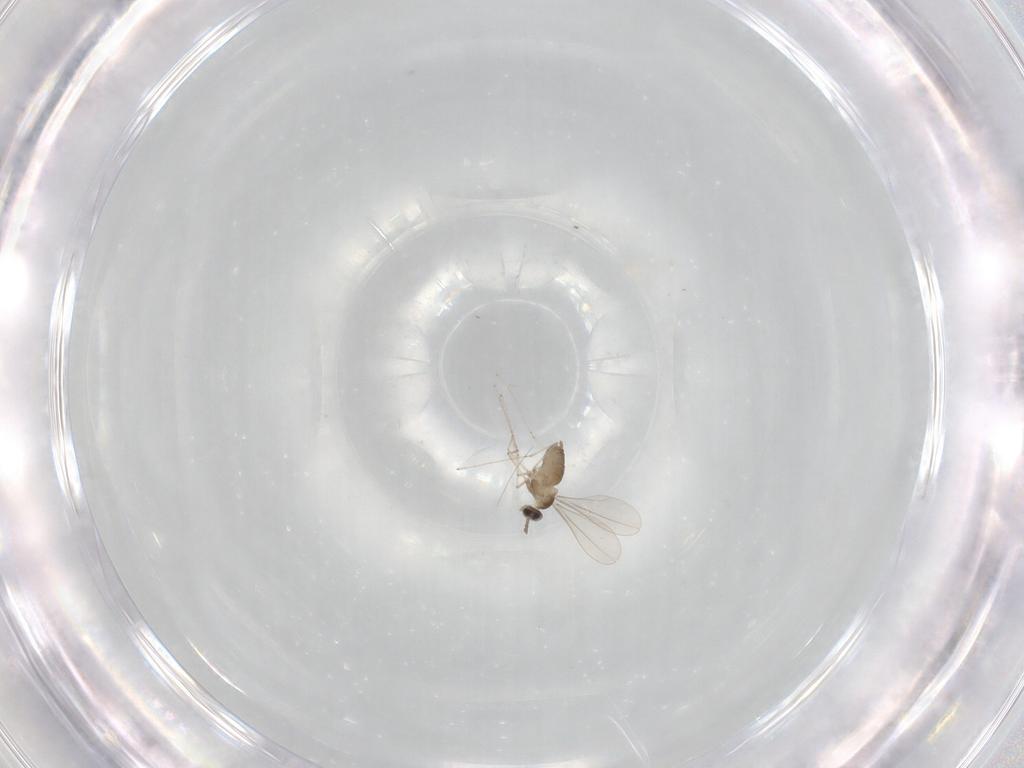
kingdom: Animalia
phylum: Arthropoda
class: Insecta
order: Diptera
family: Cecidomyiidae
